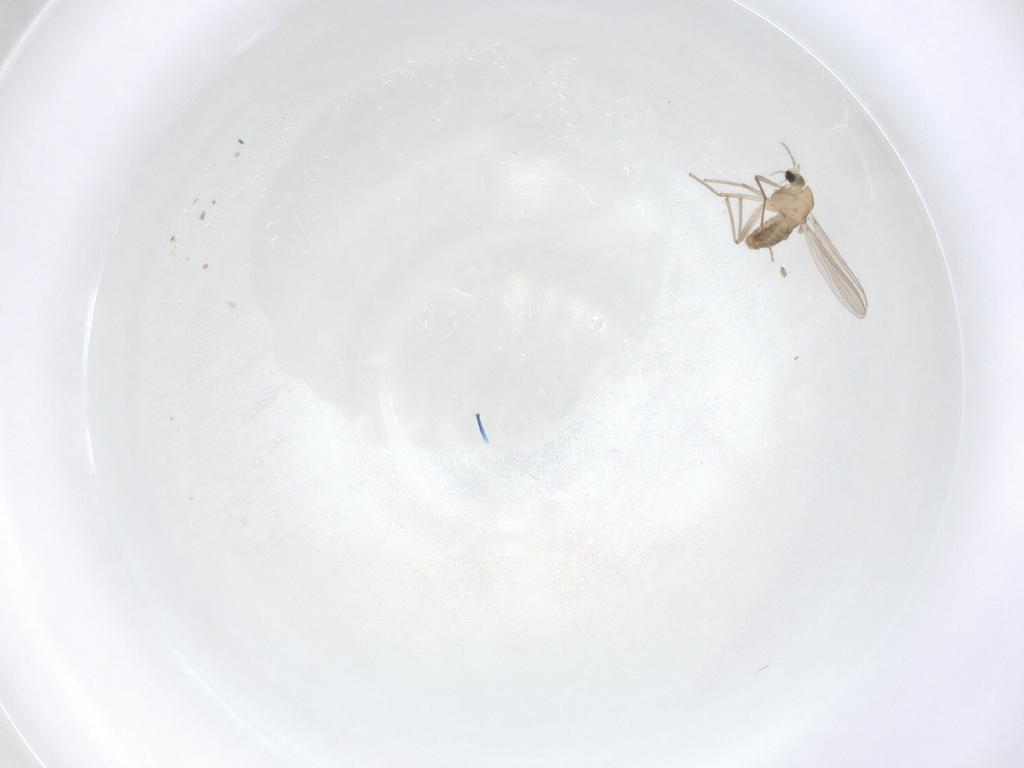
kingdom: Animalia
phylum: Arthropoda
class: Insecta
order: Diptera
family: Chironomidae
